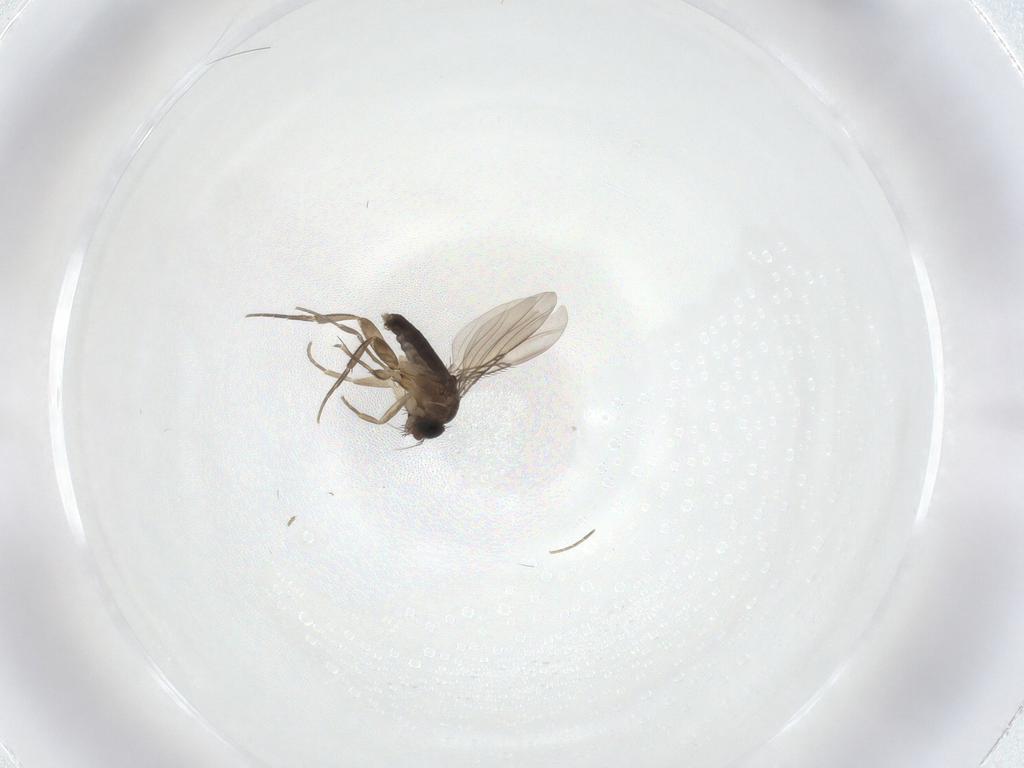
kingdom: Animalia
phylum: Arthropoda
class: Insecta
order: Diptera
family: Phoridae
